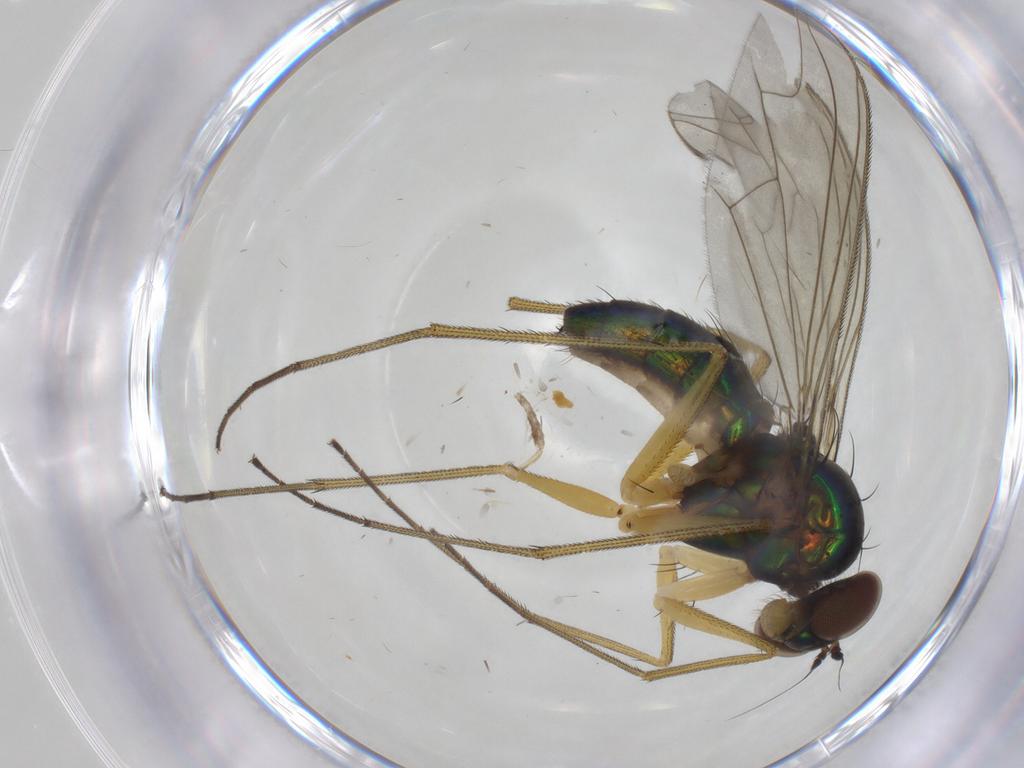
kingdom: Animalia
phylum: Arthropoda
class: Insecta
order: Diptera
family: Dolichopodidae
